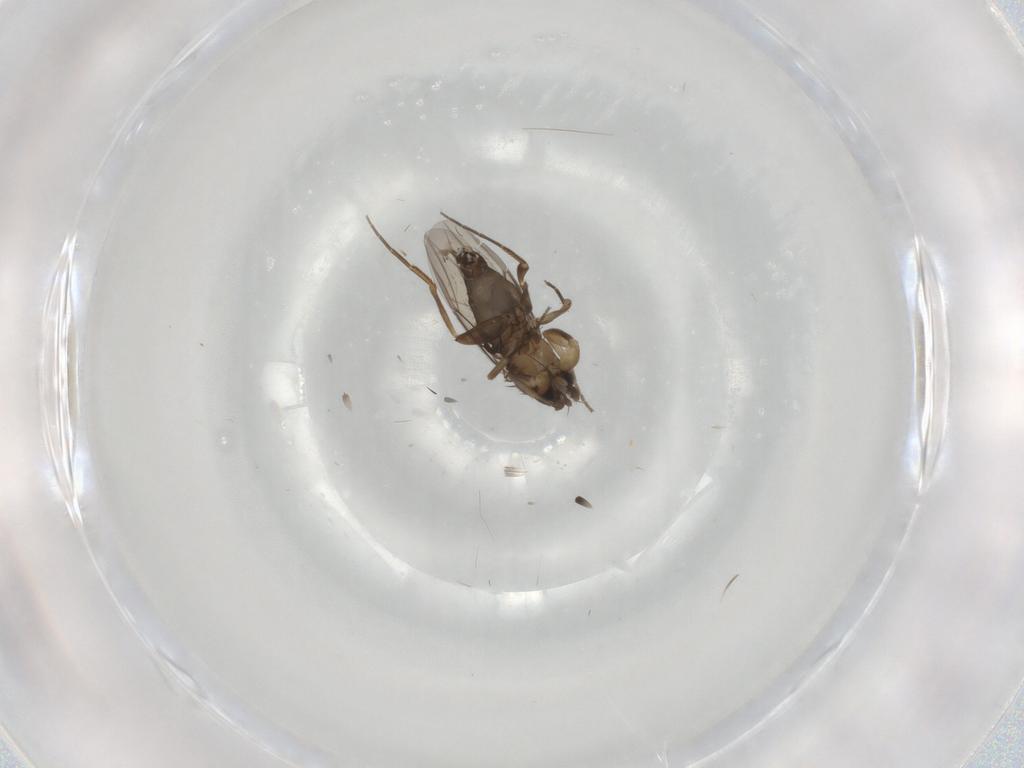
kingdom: Animalia
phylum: Arthropoda
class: Insecta
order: Diptera
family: Phoridae
